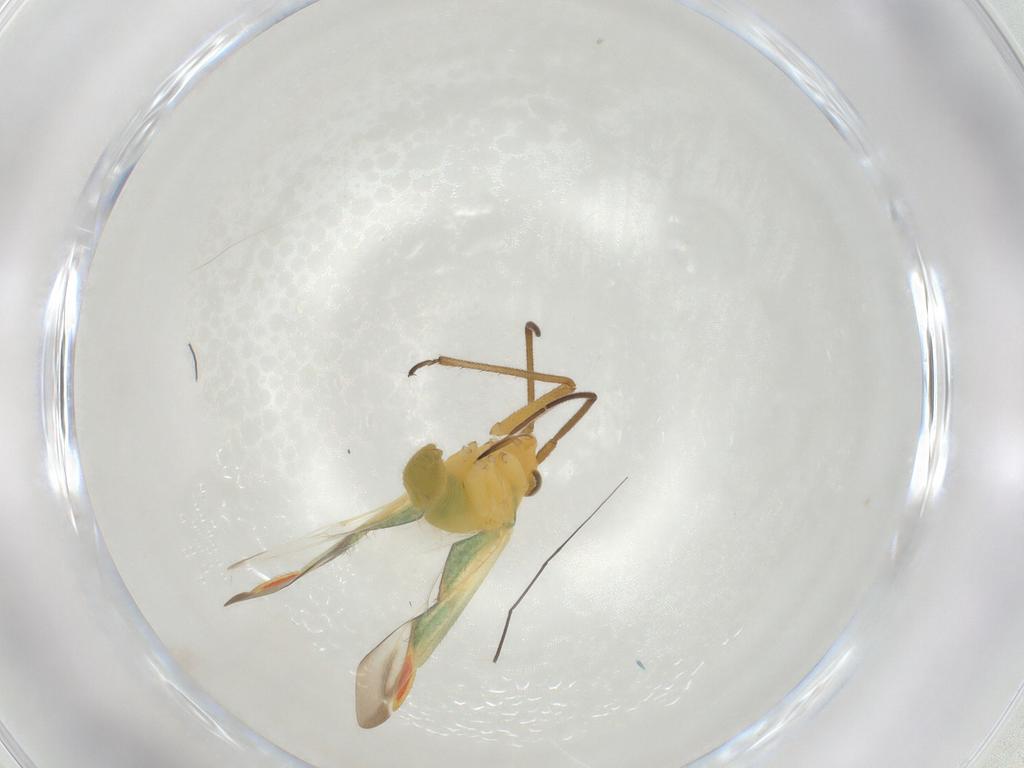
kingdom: Animalia
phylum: Arthropoda
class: Insecta
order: Hemiptera
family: Aphididae
